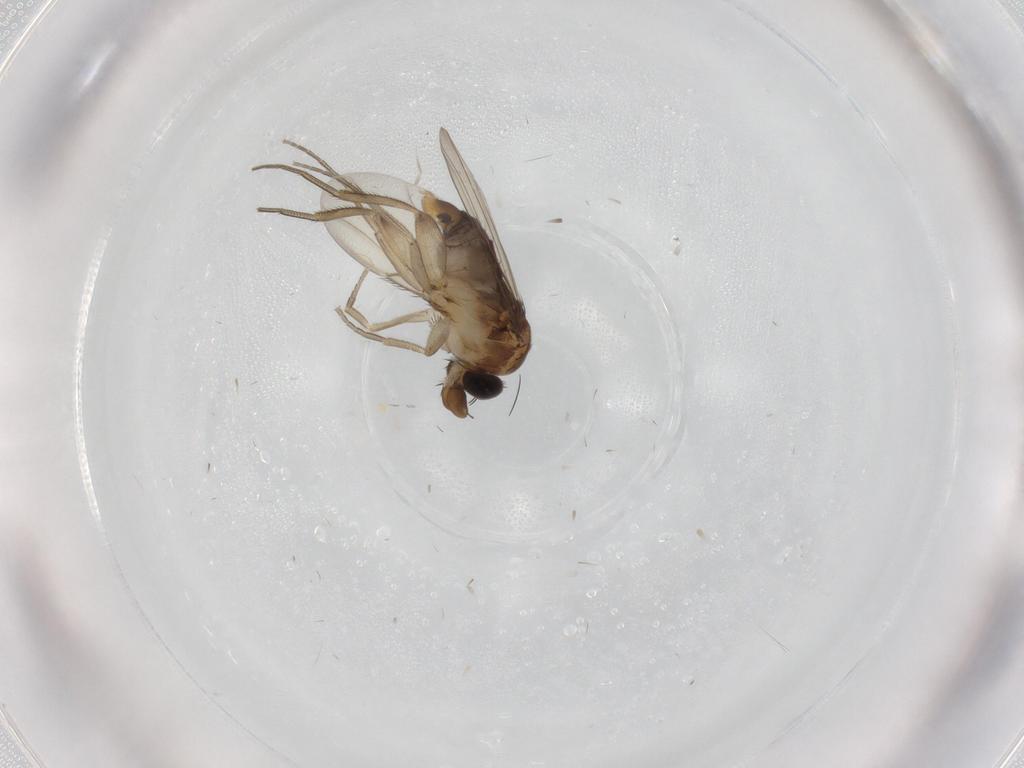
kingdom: Animalia
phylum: Arthropoda
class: Insecta
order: Diptera
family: Phoridae
